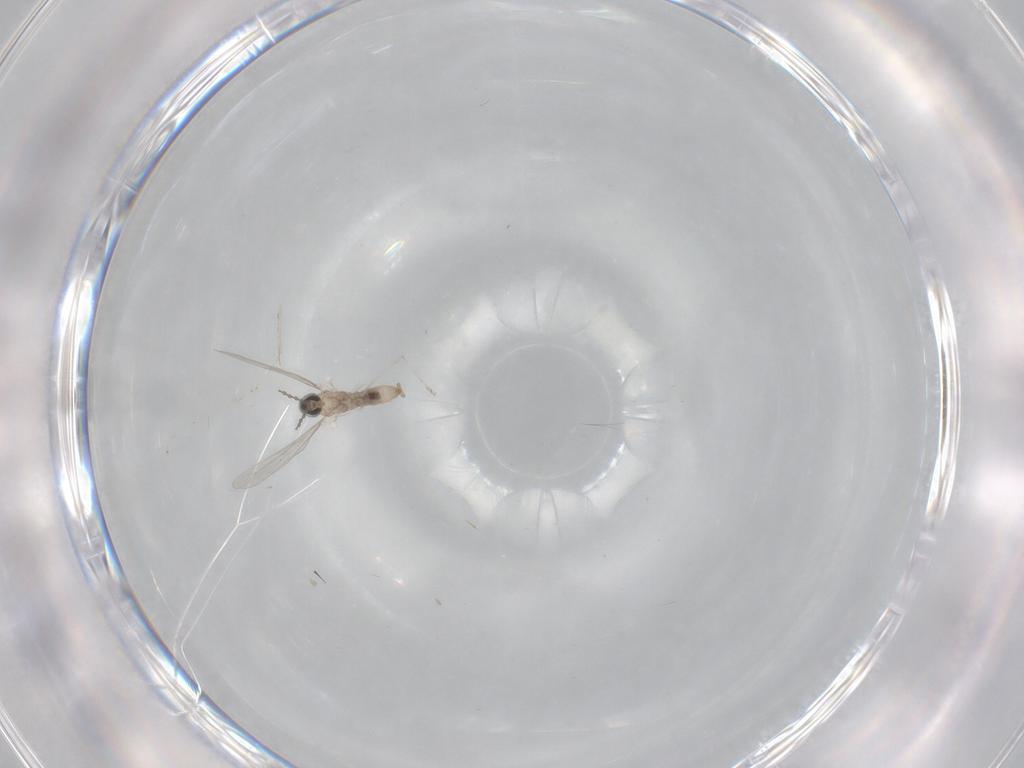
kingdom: Animalia
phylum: Arthropoda
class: Insecta
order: Diptera
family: Cecidomyiidae
